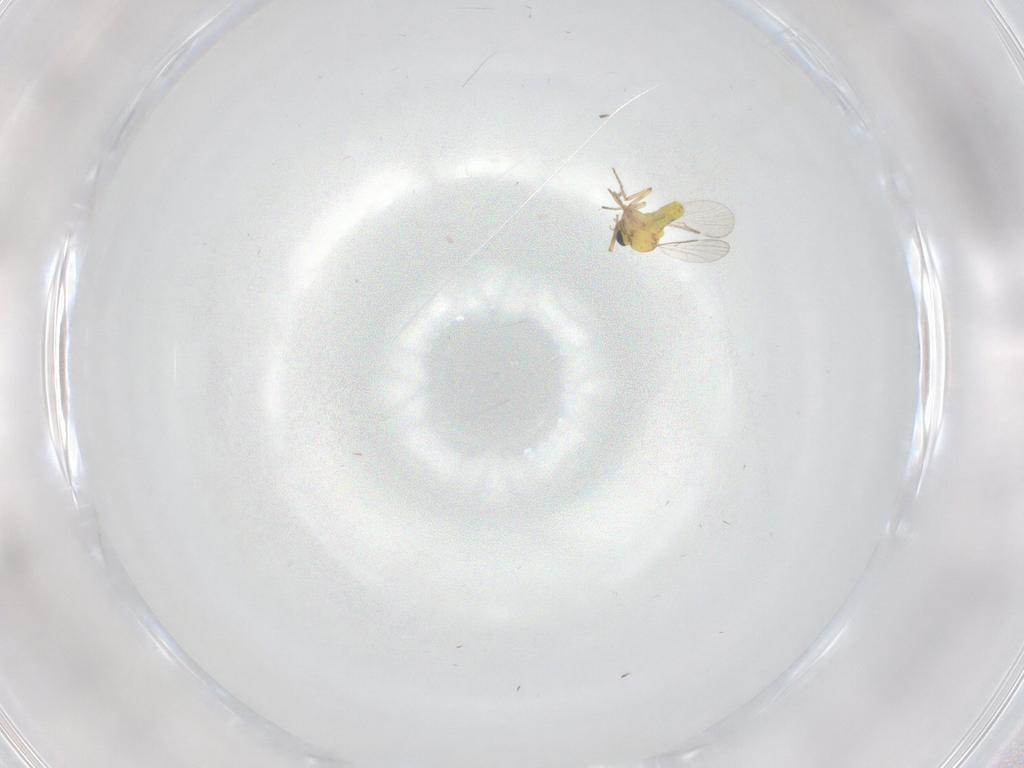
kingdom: Animalia
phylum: Arthropoda
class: Insecta
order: Diptera
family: Ceratopogonidae
